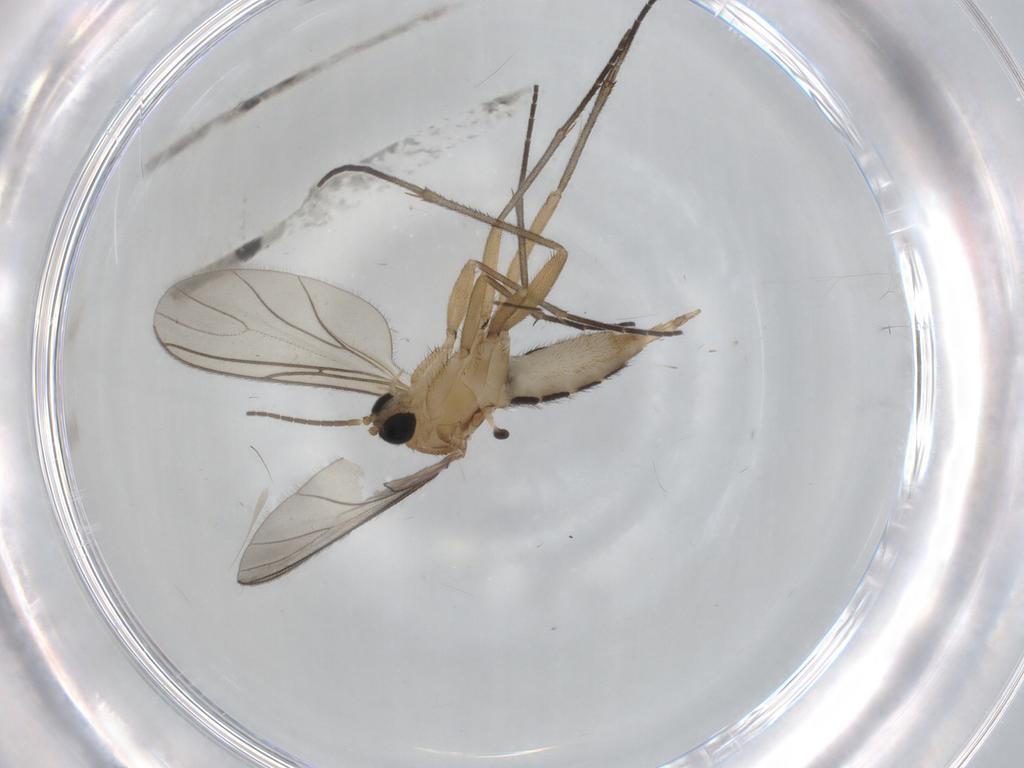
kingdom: Animalia
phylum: Arthropoda
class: Insecta
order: Diptera
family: Sciaridae
